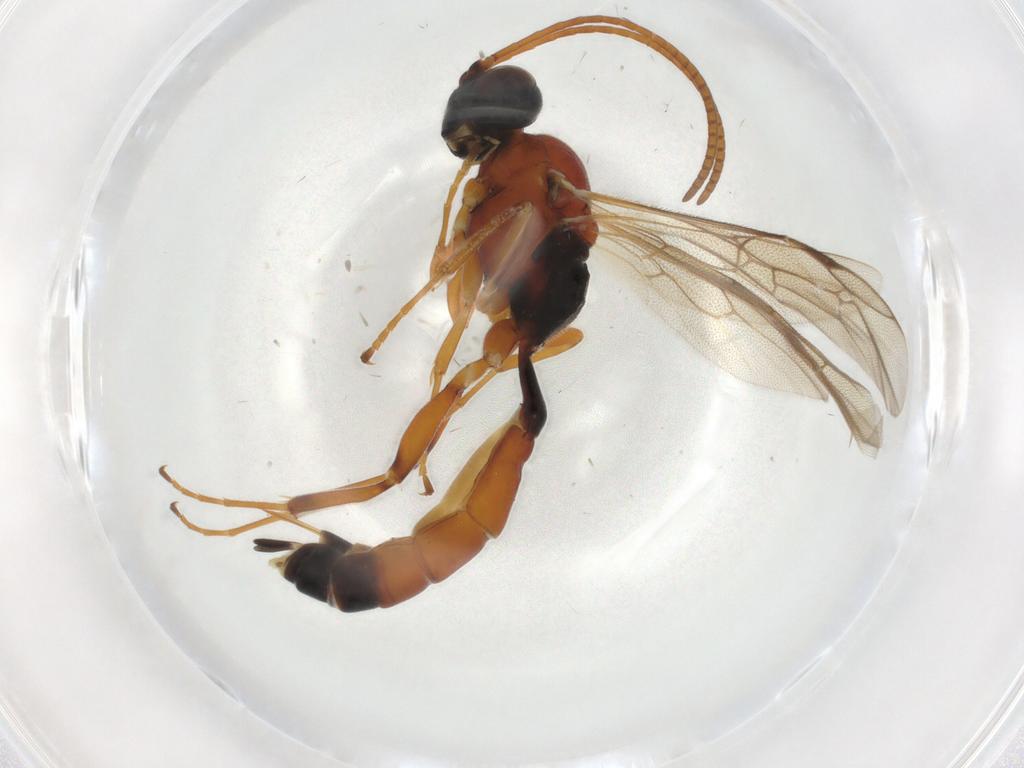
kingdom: Animalia
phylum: Arthropoda
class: Insecta
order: Hymenoptera
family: Ichneumonidae
